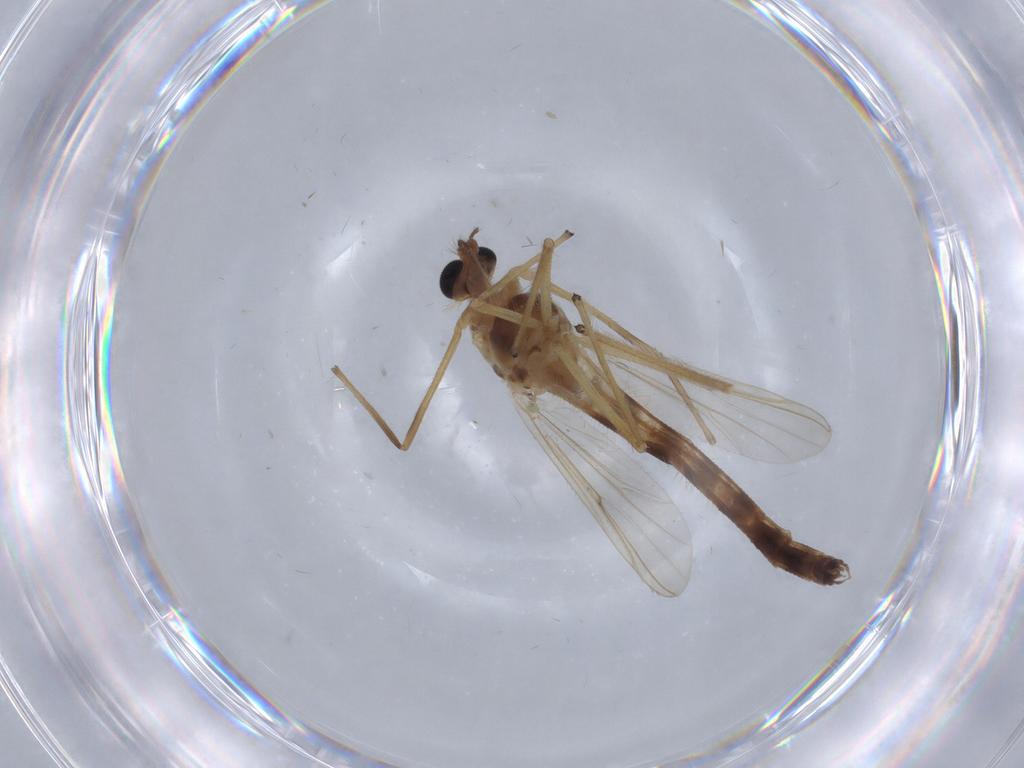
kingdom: Animalia
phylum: Arthropoda
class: Insecta
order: Diptera
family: Chironomidae
